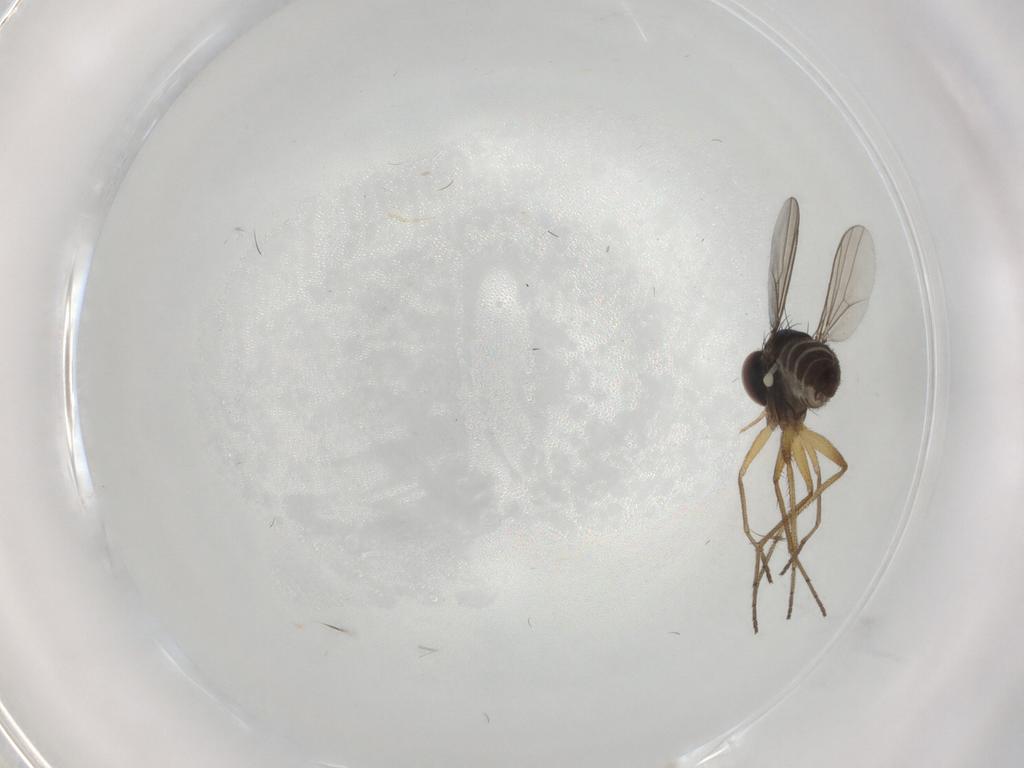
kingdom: Animalia
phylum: Arthropoda
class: Insecta
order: Diptera
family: Dolichopodidae
